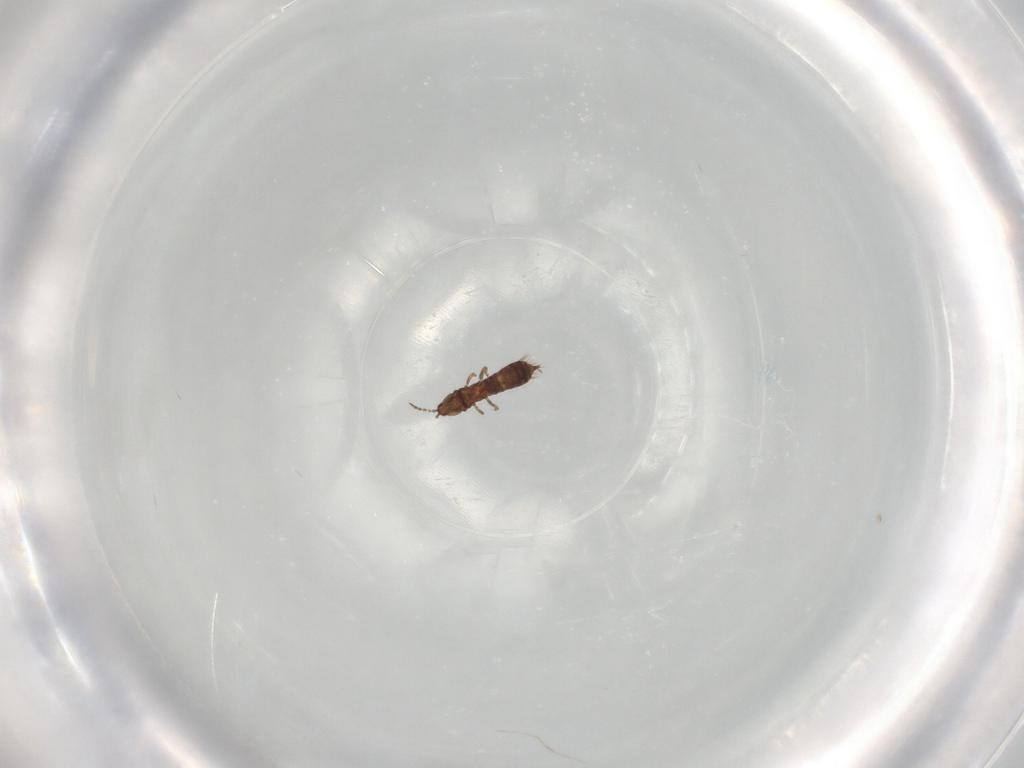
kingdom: Animalia
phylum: Arthropoda
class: Insecta
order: Thysanoptera
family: Phlaeothripidae
